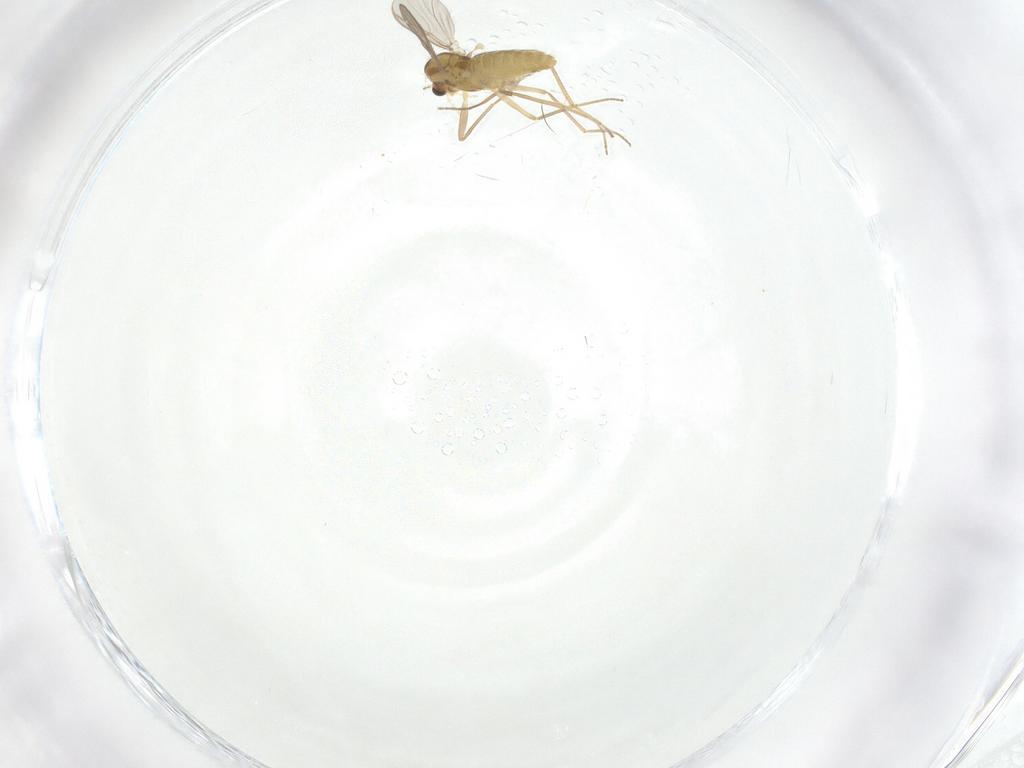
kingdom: Animalia
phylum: Arthropoda
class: Insecta
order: Diptera
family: Chironomidae
